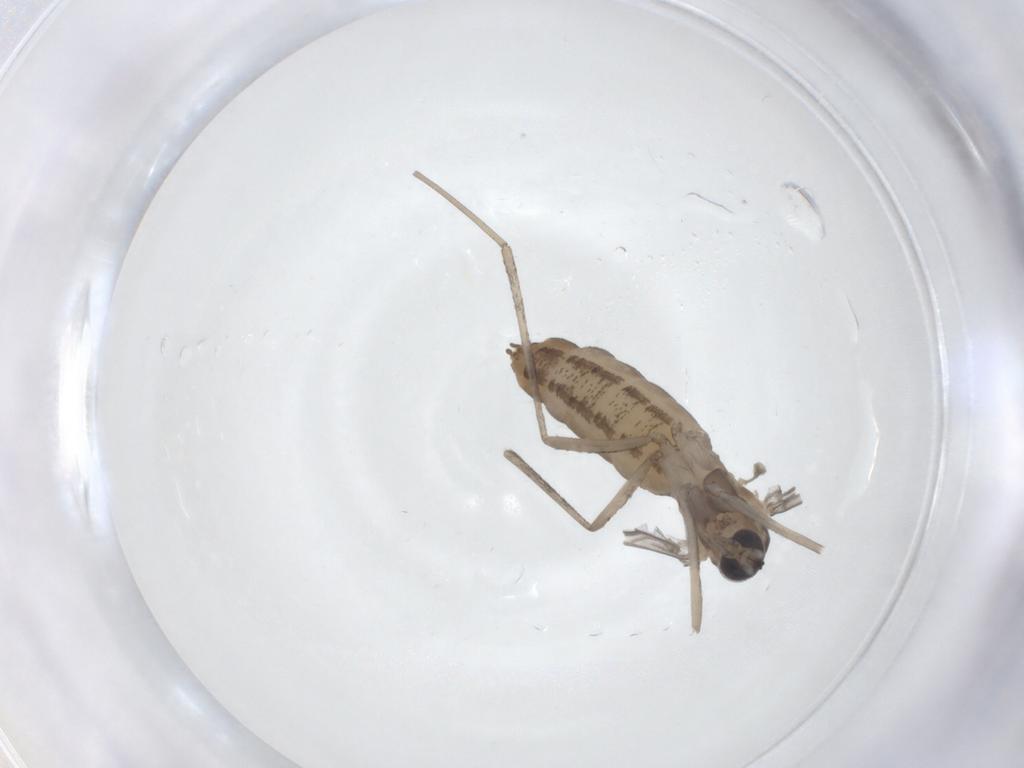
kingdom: Animalia
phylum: Arthropoda
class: Insecta
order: Diptera
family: Cecidomyiidae
